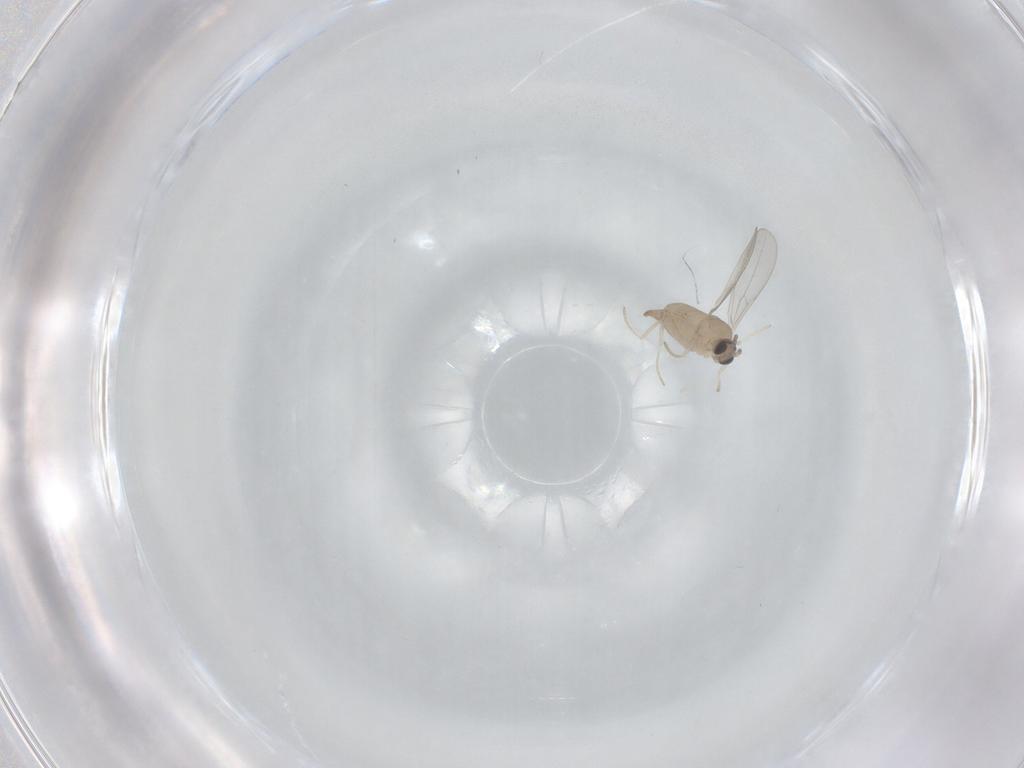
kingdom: Animalia
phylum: Arthropoda
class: Insecta
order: Diptera
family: Cecidomyiidae
